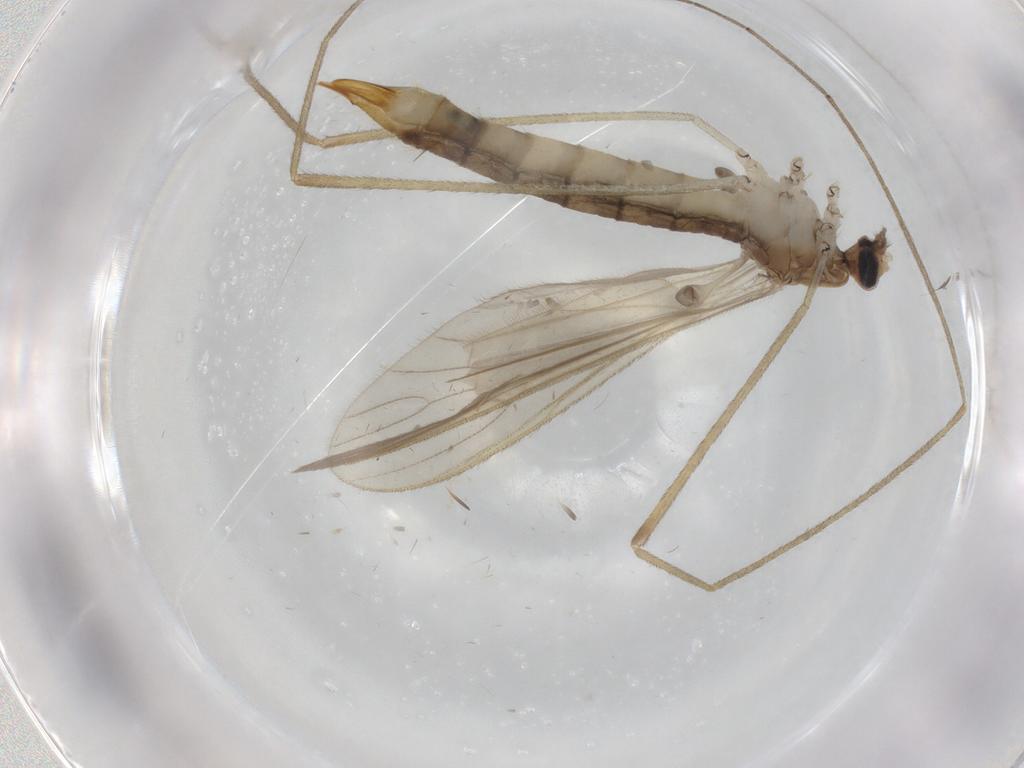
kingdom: Animalia
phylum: Arthropoda
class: Insecta
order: Diptera
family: Limoniidae
